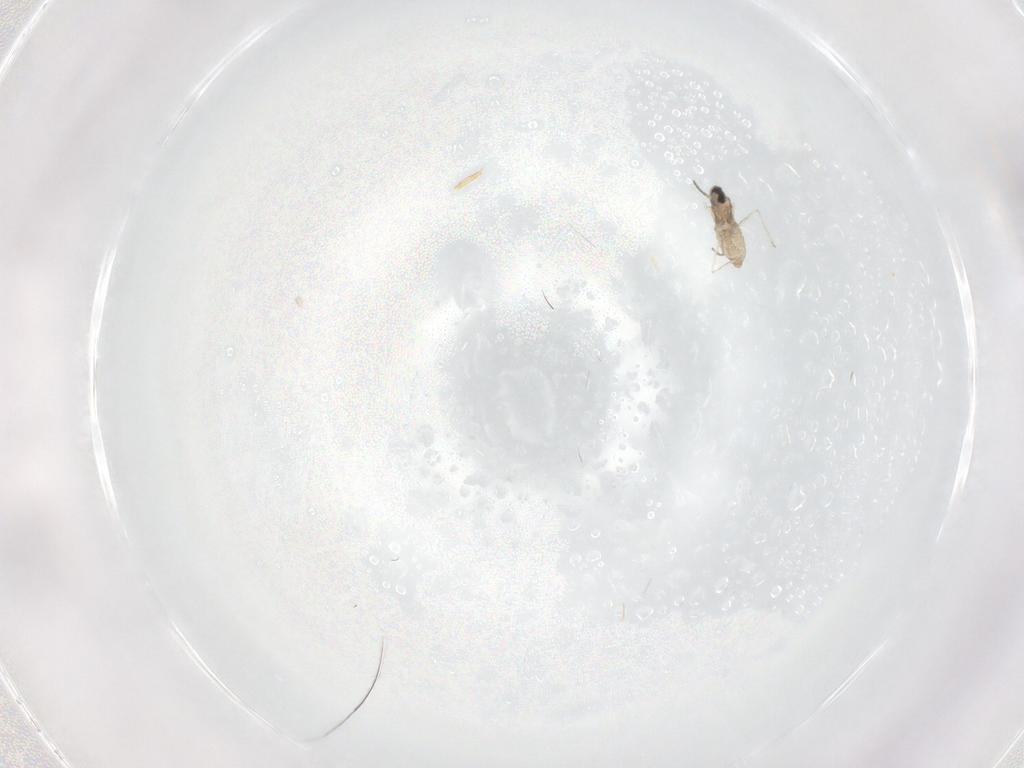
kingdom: Animalia
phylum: Arthropoda
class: Insecta
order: Diptera
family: Cecidomyiidae
